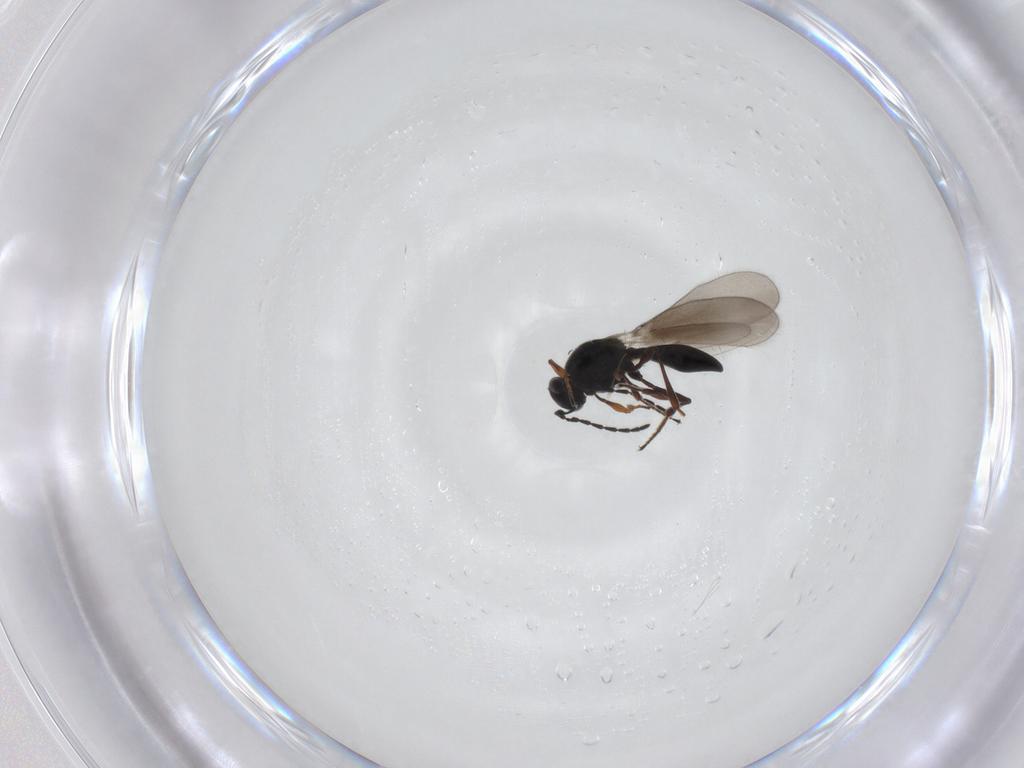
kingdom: Animalia
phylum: Arthropoda
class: Insecta
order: Hymenoptera
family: Platygastridae
